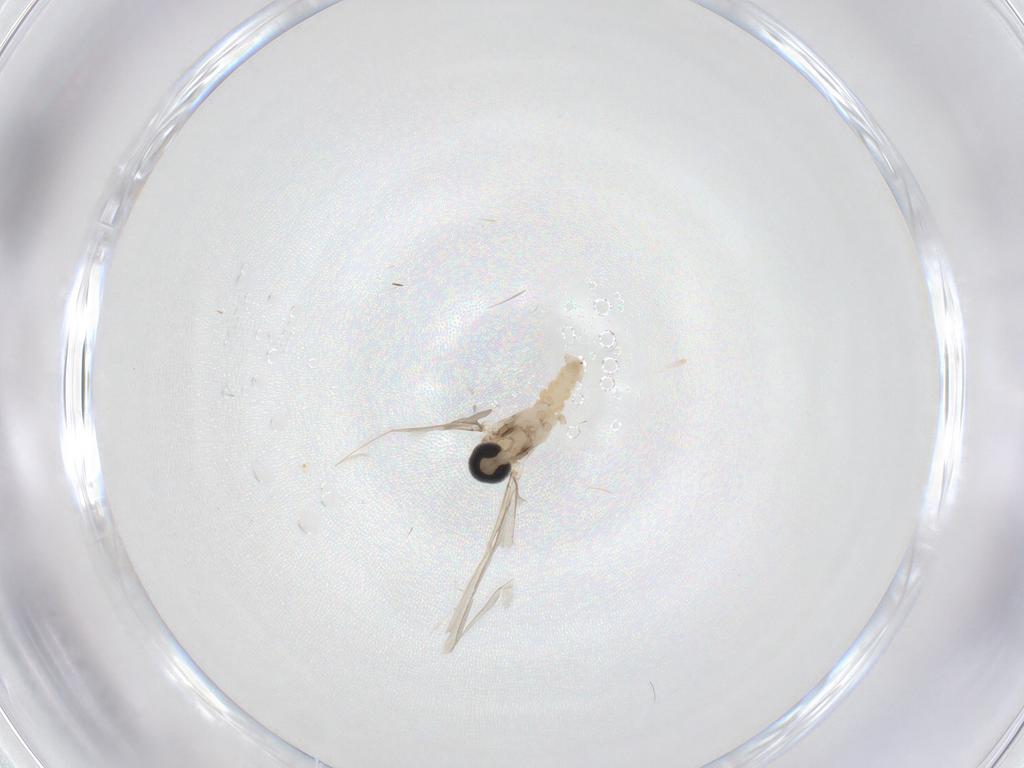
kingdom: Animalia
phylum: Arthropoda
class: Insecta
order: Diptera
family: Cecidomyiidae
